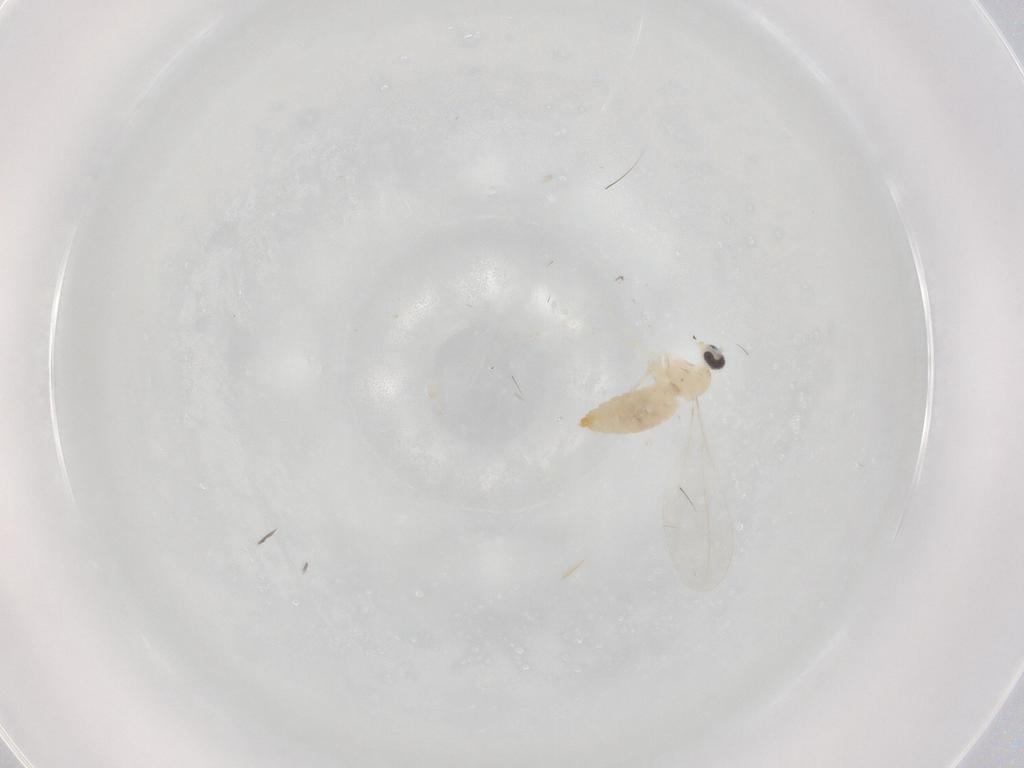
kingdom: Animalia
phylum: Arthropoda
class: Insecta
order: Diptera
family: Cecidomyiidae
